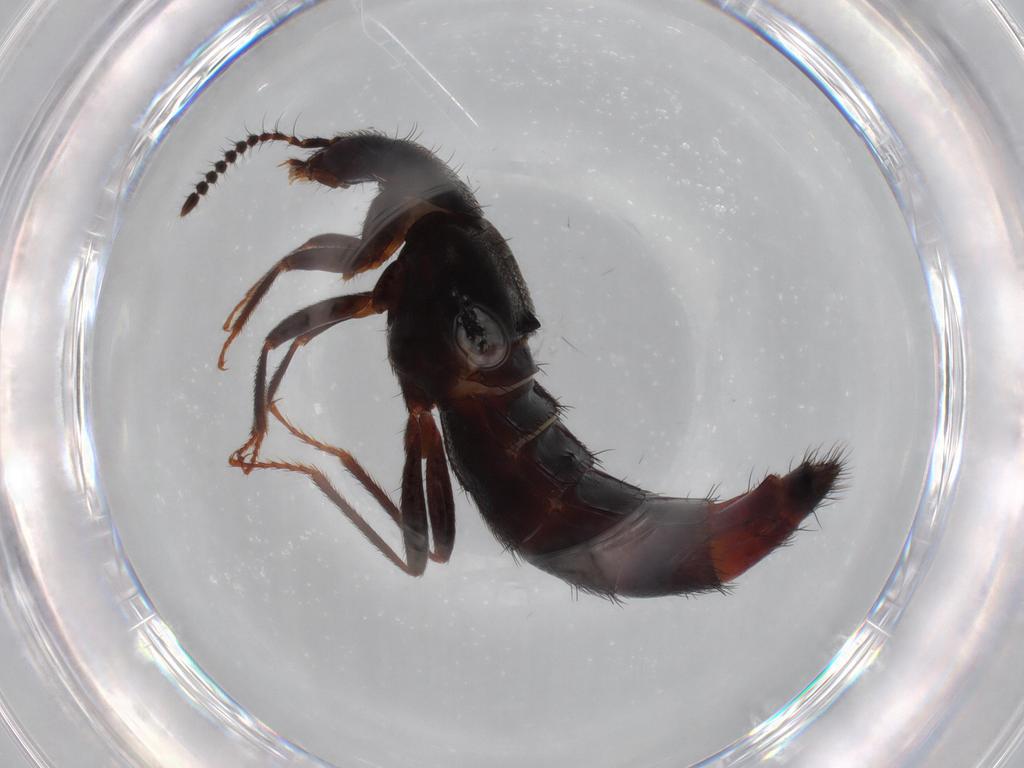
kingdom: Animalia
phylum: Arthropoda
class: Insecta
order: Coleoptera
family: Staphylinidae
